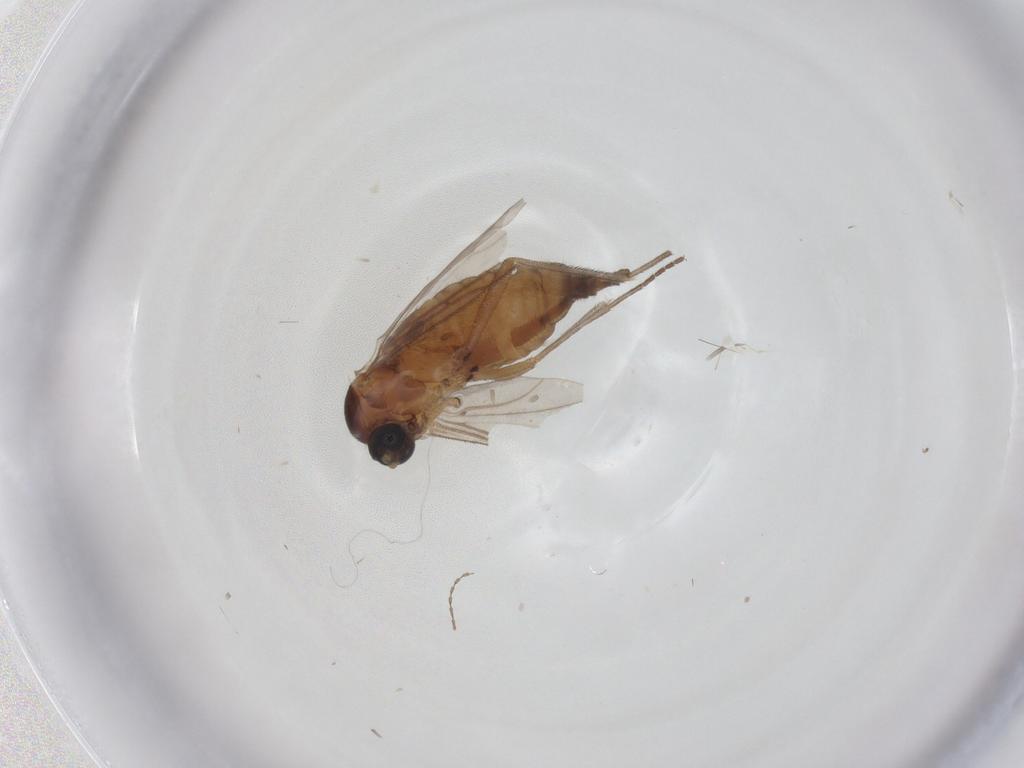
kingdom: Animalia
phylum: Arthropoda
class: Insecta
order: Diptera
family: Sciaridae
